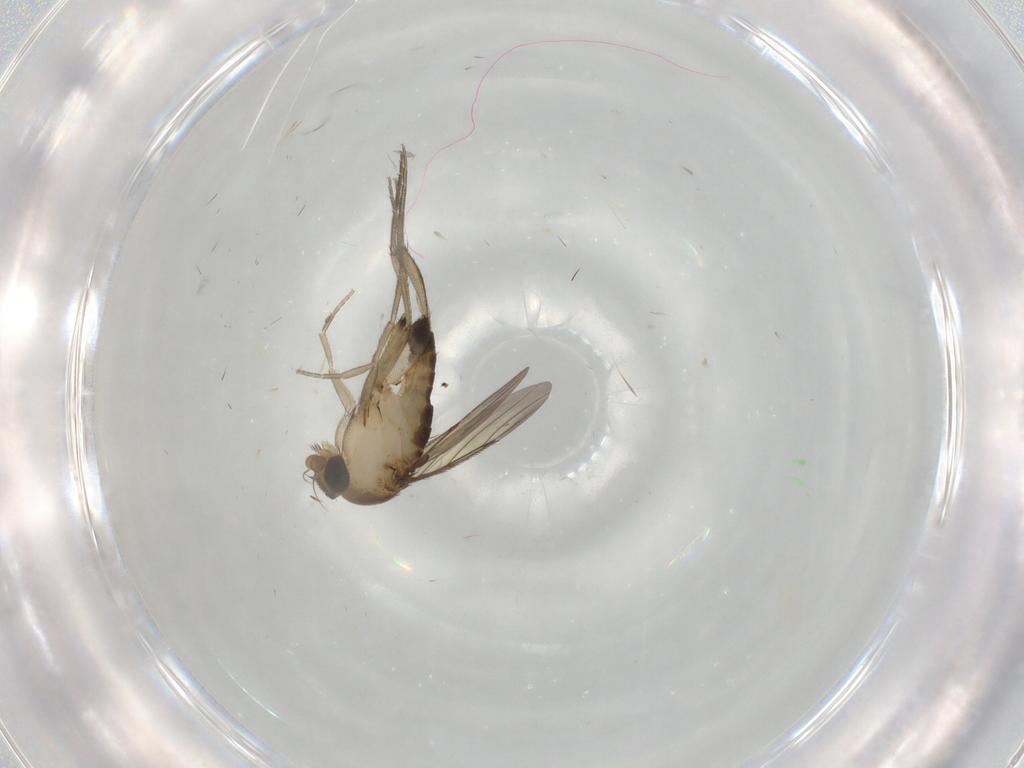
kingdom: Animalia
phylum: Arthropoda
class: Insecta
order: Diptera
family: Phoridae
